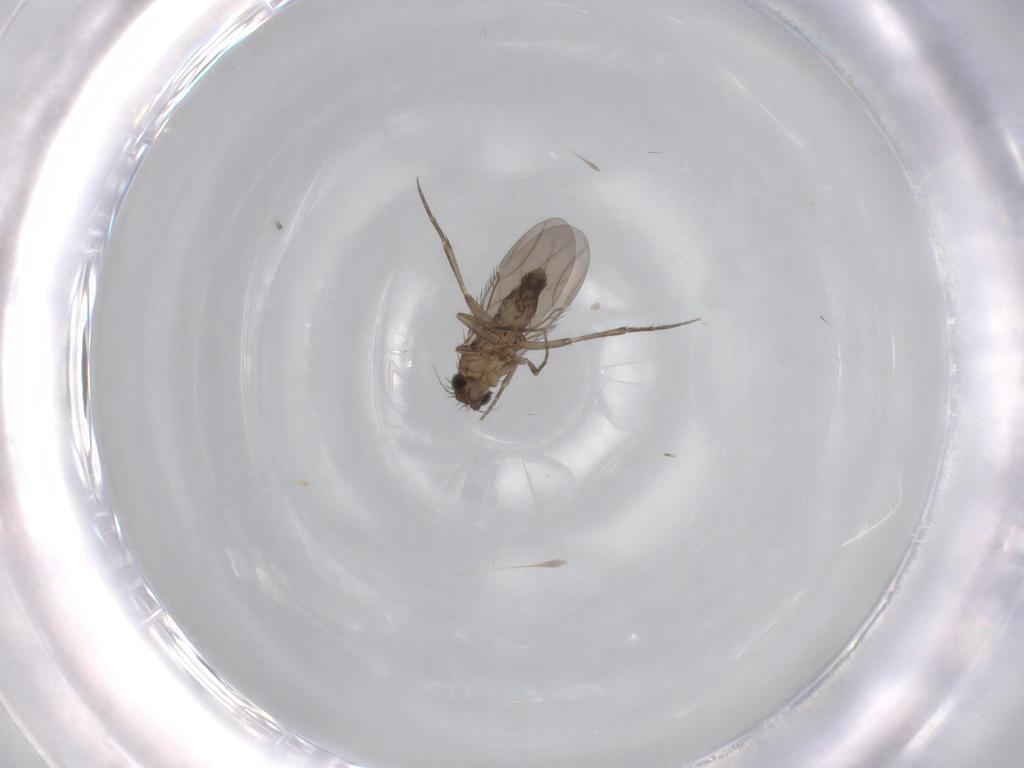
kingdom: Animalia
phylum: Arthropoda
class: Insecta
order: Diptera
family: Phoridae
